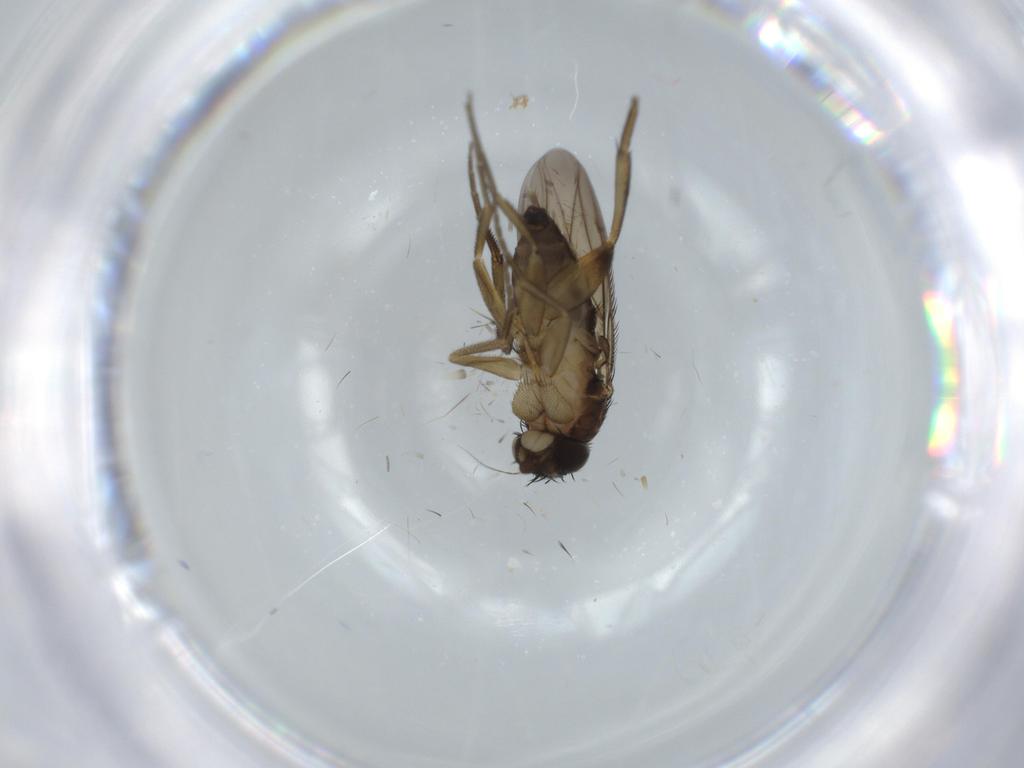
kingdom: Animalia
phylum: Arthropoda
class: Insecta
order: Diptera
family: Phoridae
